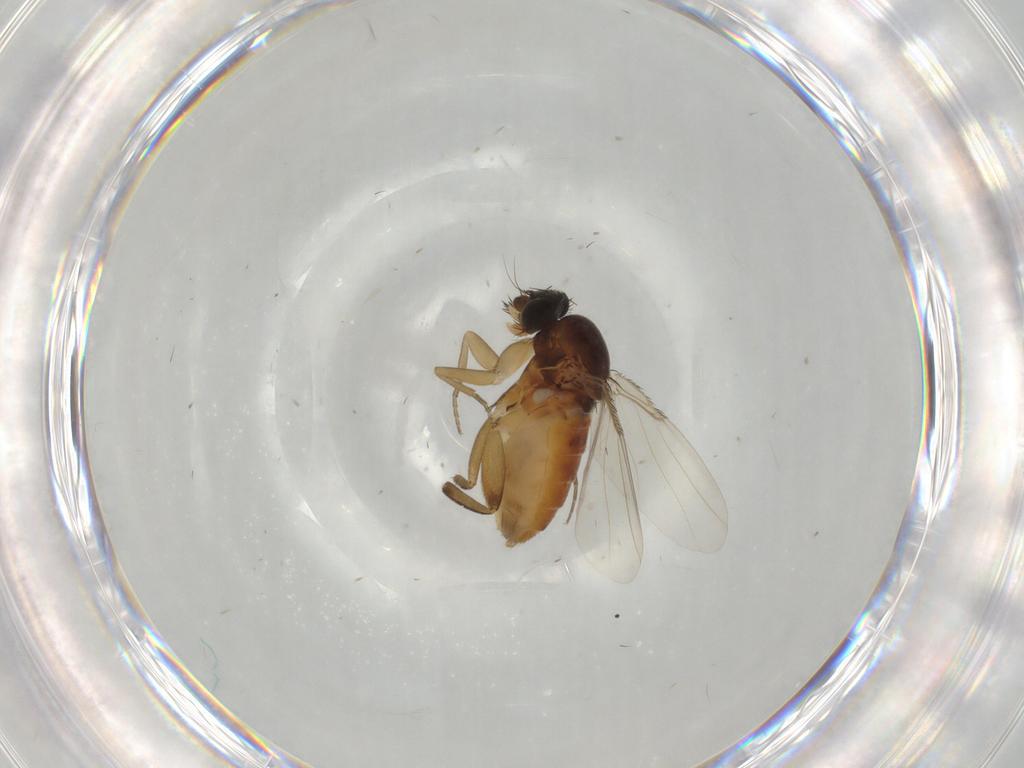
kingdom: Animalia
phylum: Arthropoda
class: Insecta
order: Diptera
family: Phoridae
